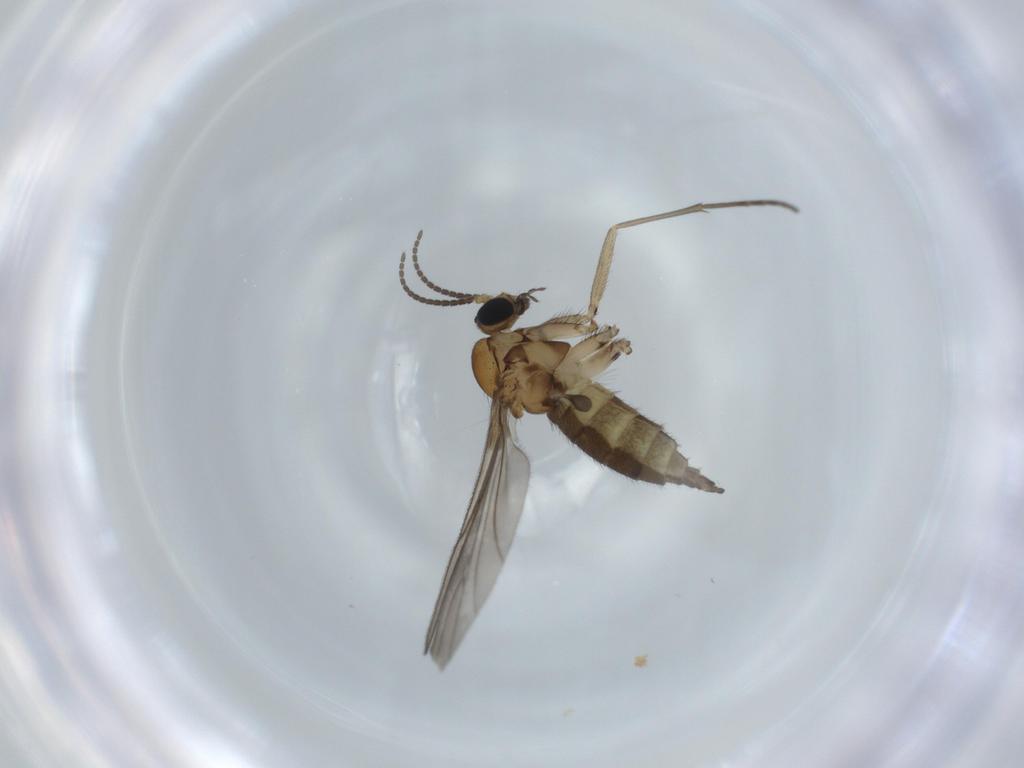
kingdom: Animalia
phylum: Arthropoda
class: Insecta
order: Diptera
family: Sciaridae
